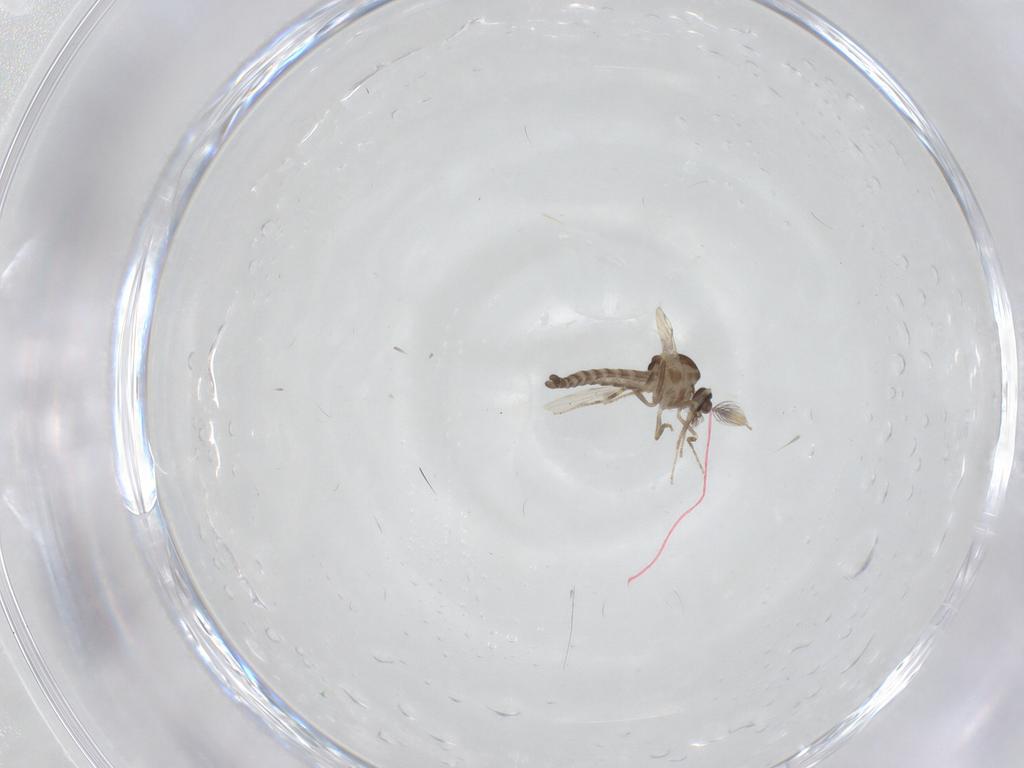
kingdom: Animalia
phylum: Arthropoda
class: Insecta
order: Diptera
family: Ceratopogonidae
